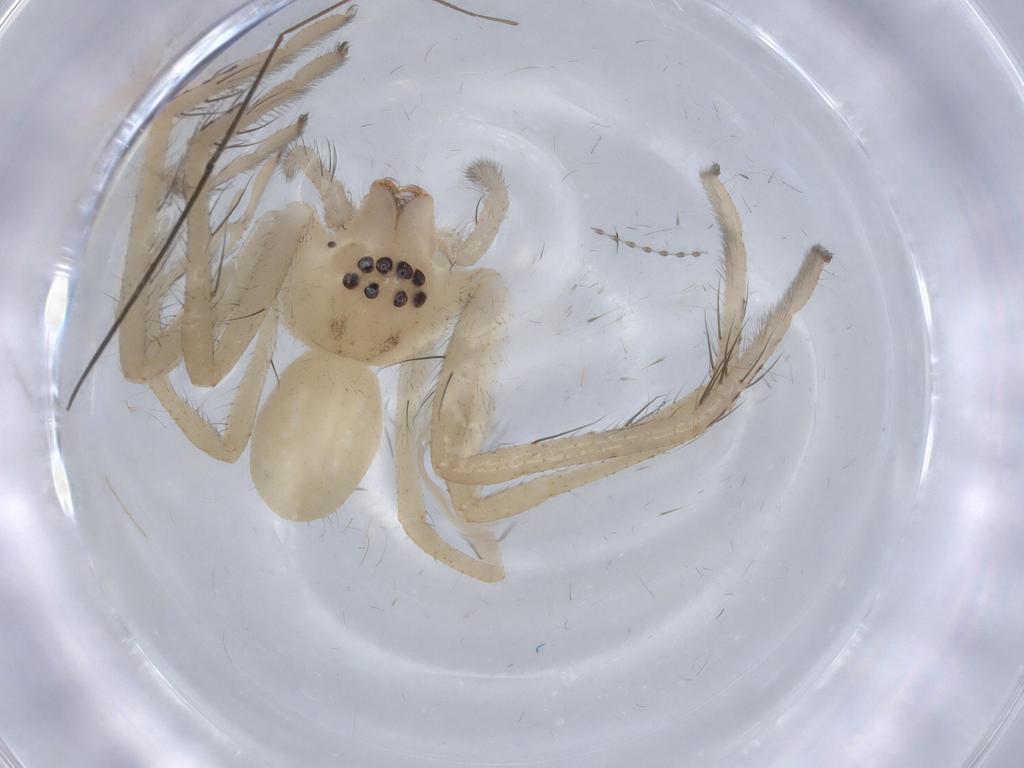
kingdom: Animalia
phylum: Arthropoda
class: Arachnida
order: Araneae
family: Sparassidae
